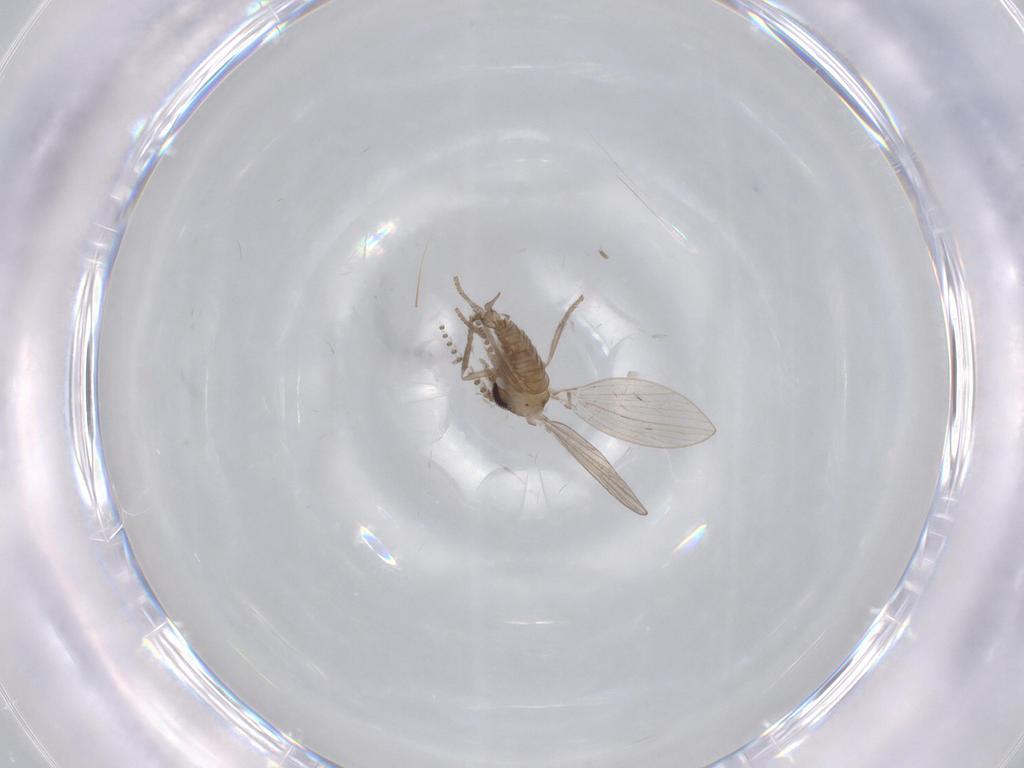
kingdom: Animalia
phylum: Arthropoda
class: Insecta
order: Diptera
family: Psychodidae
